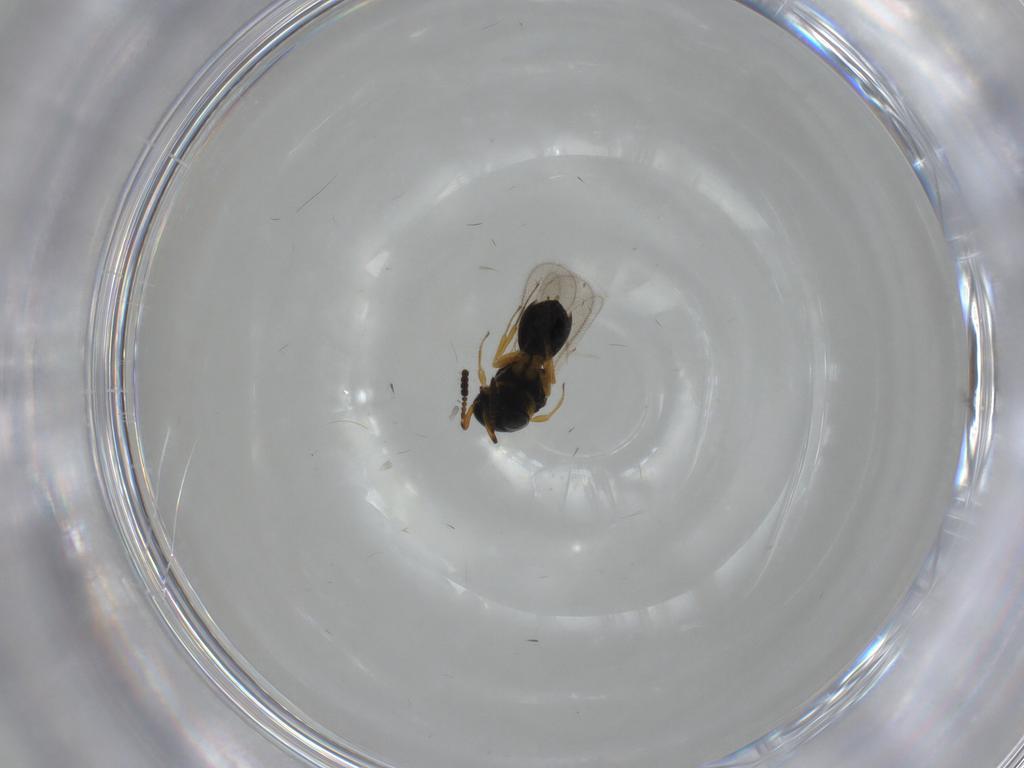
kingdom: Animalia
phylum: Arthropoda
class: Insecta
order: Hymenoptera
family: Scelionidae
